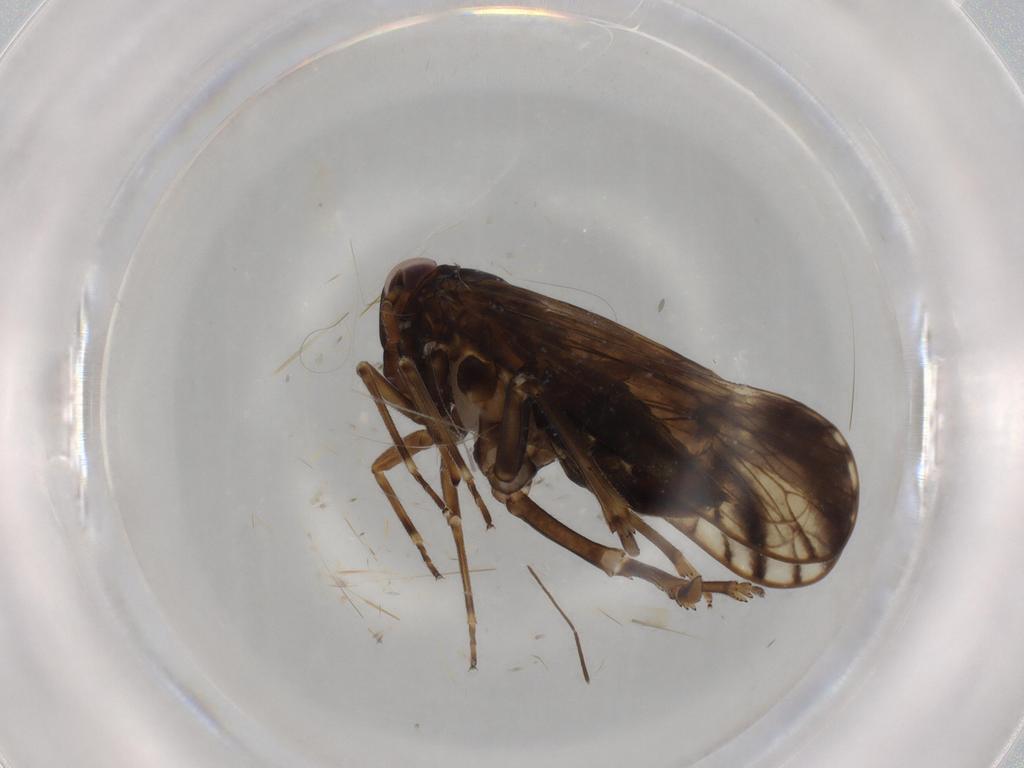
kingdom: Animalia
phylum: Arthropoda
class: Insecta
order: Hemiptera
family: Delphacidae
